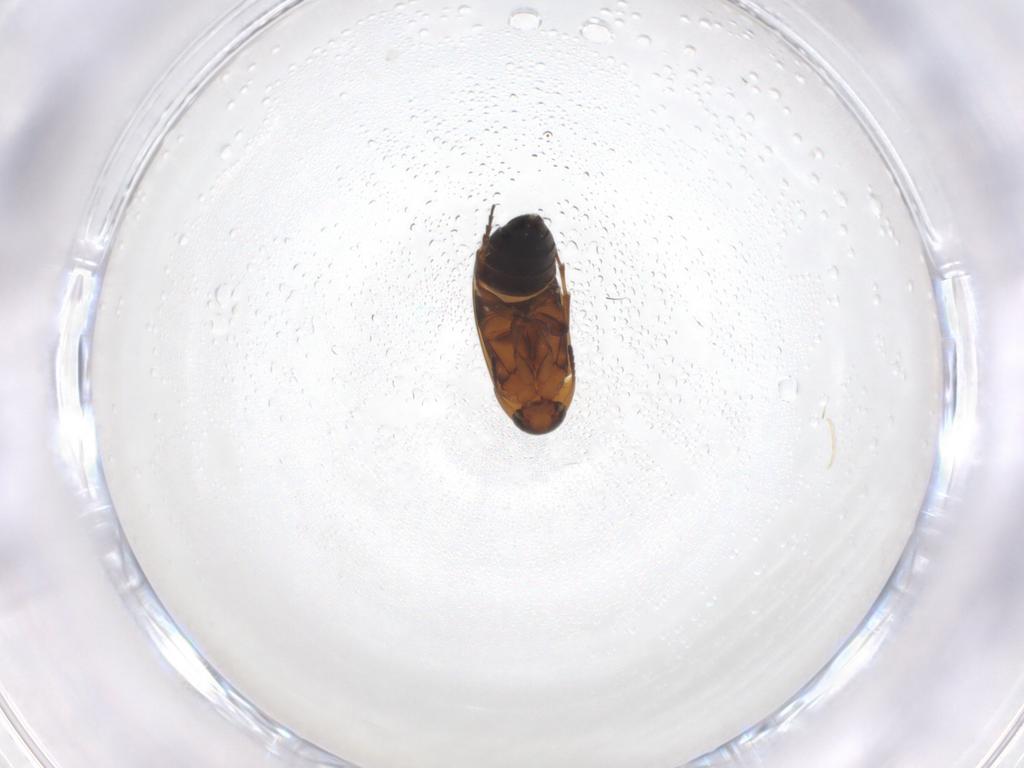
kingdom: Animalia
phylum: Arthropoda
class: Insecta
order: Coleoptera
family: Scraptiidae
